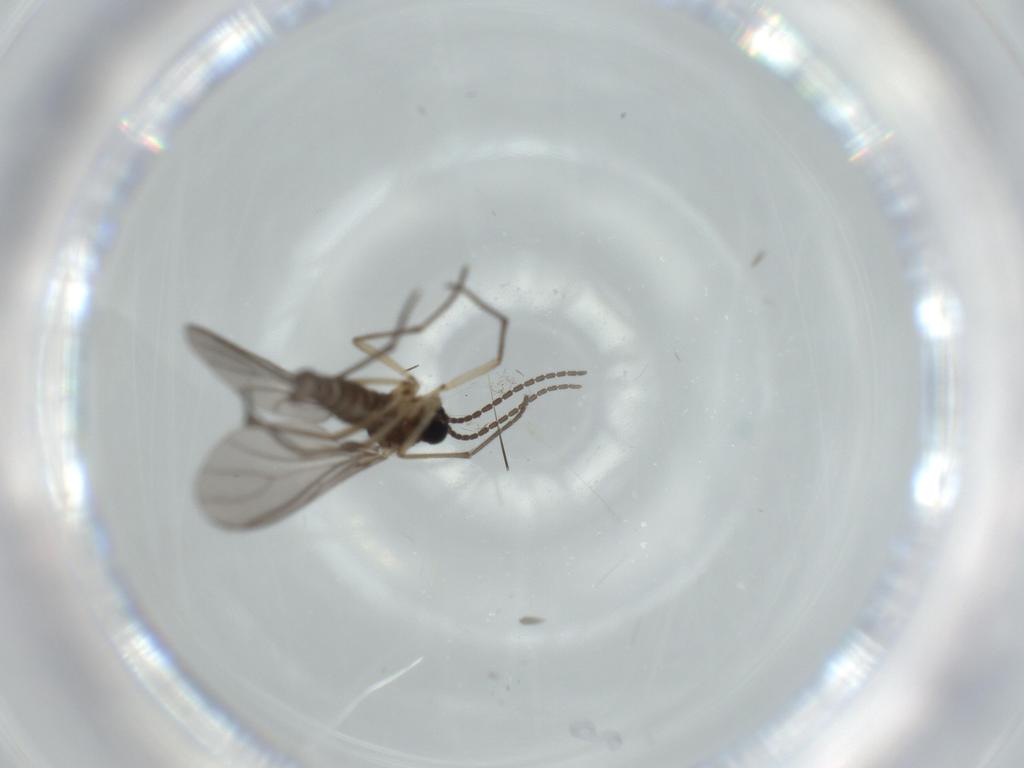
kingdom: Animalia
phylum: Arthropoda
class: Insecta
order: Diptera
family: Sciaridae
